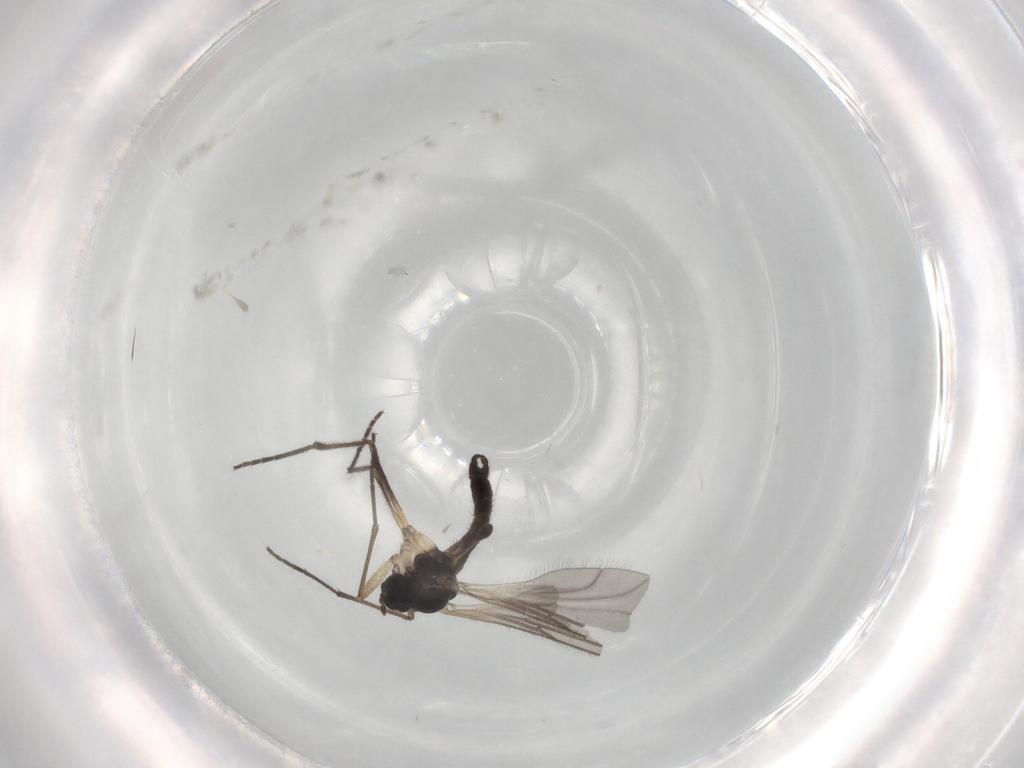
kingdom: Animalia
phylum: Arthropoda
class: Insecta
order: Diptera
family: Sciaridae
